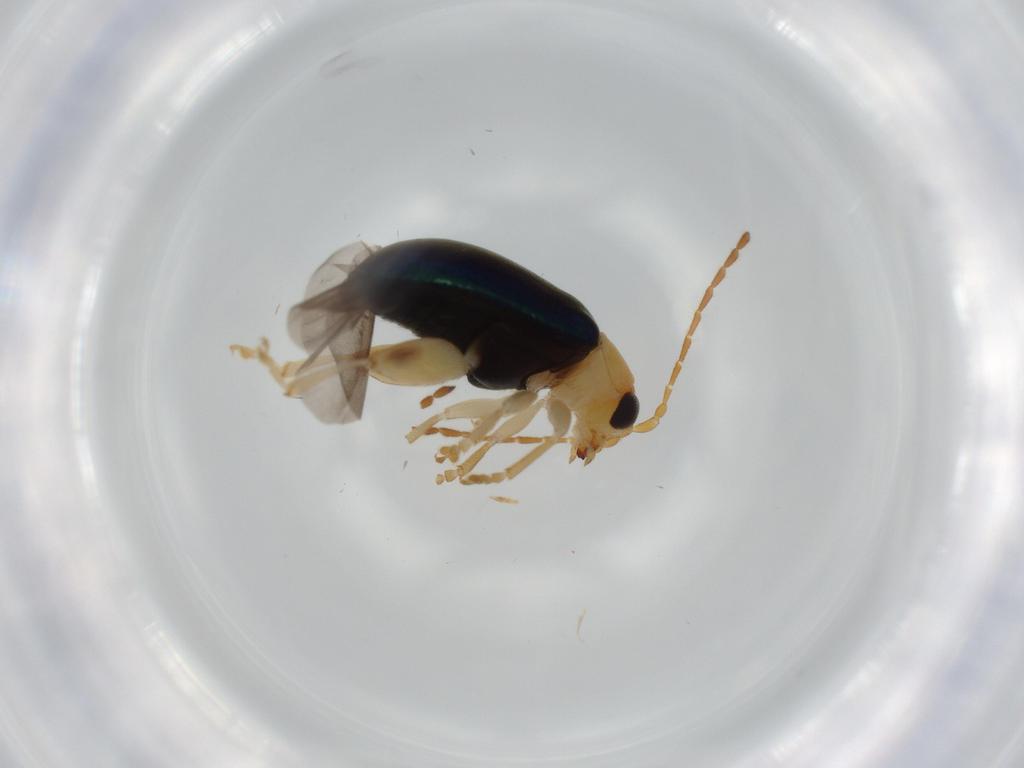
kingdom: Animalia
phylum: Arthropoda
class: Insecta
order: Coleoptera
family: Chrysomelidae
